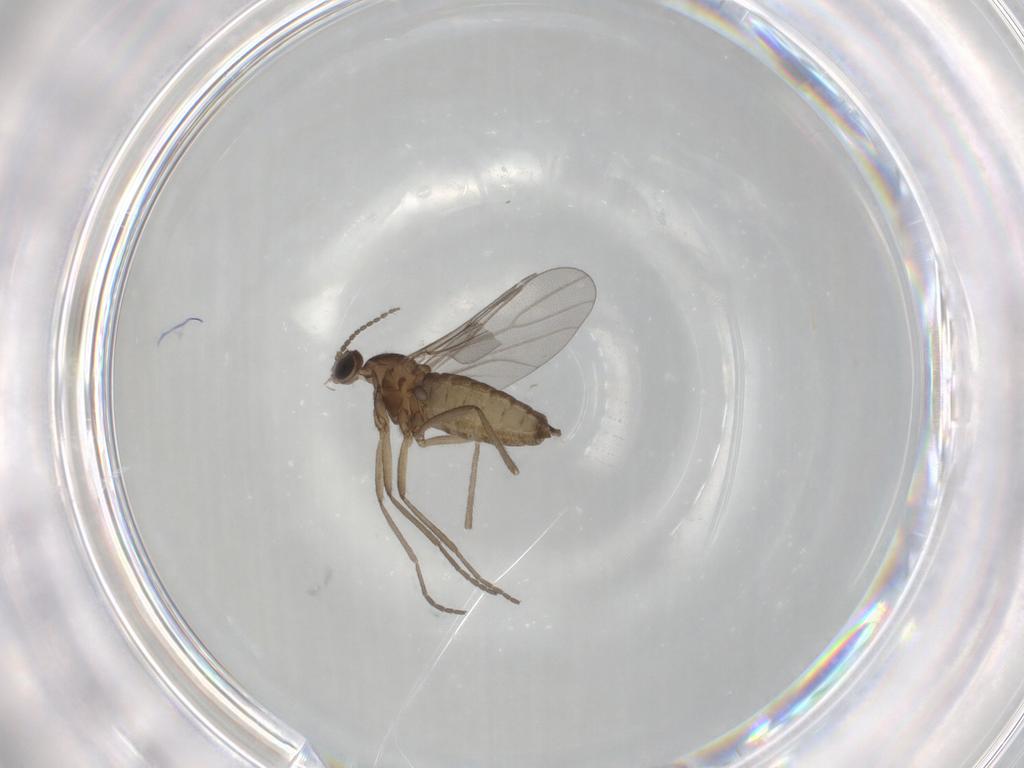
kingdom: Animalia
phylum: Arthropoda
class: Insecta
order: Diptera
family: Cecidomyiidae
